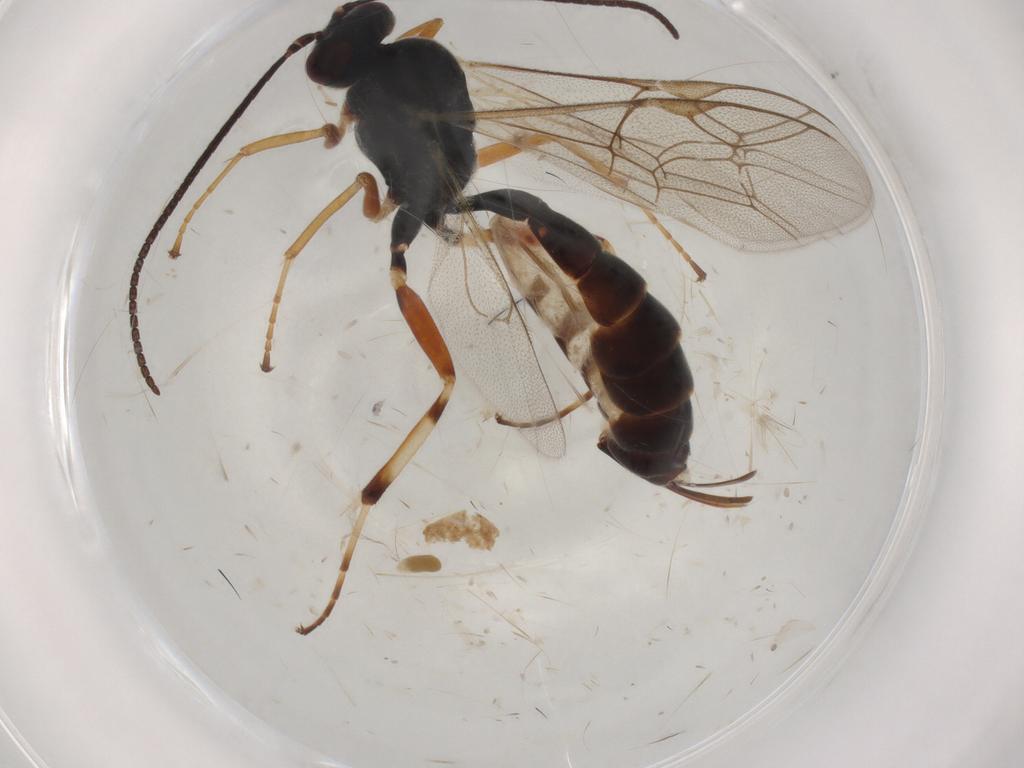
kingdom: Animalia
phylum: Arthropoda
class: Insecta
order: Hymenoptera
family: Ichneumonidae
